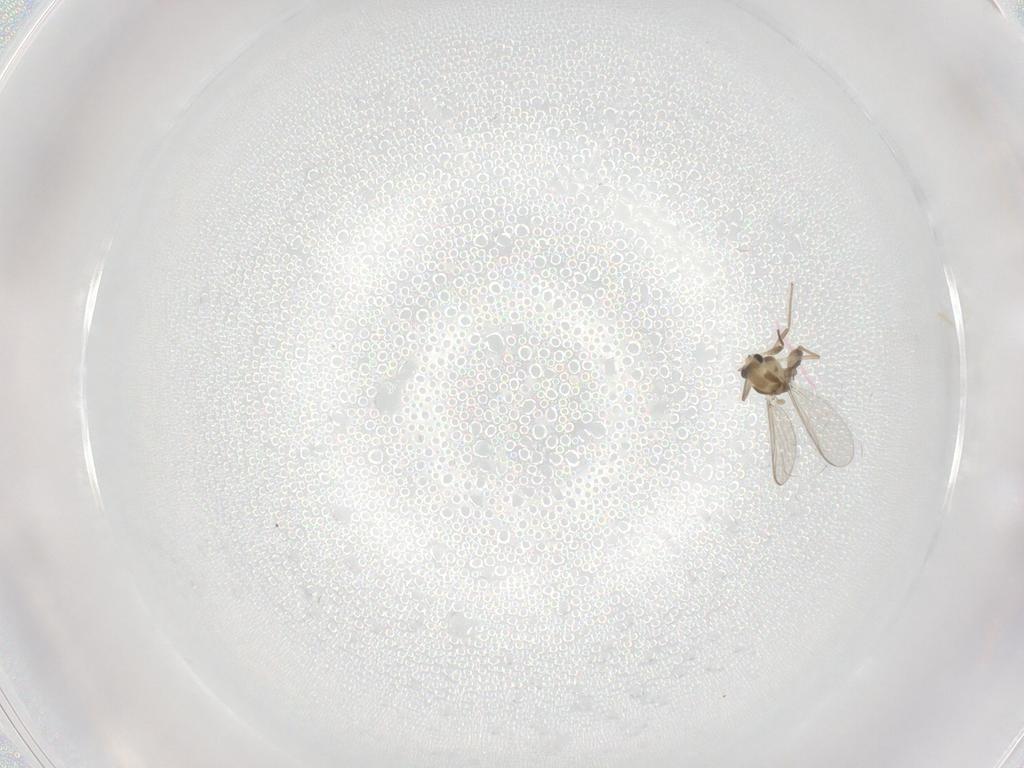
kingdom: Animalia
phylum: Arthropoda
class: Insecta
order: Diptera
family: Chironomidae
